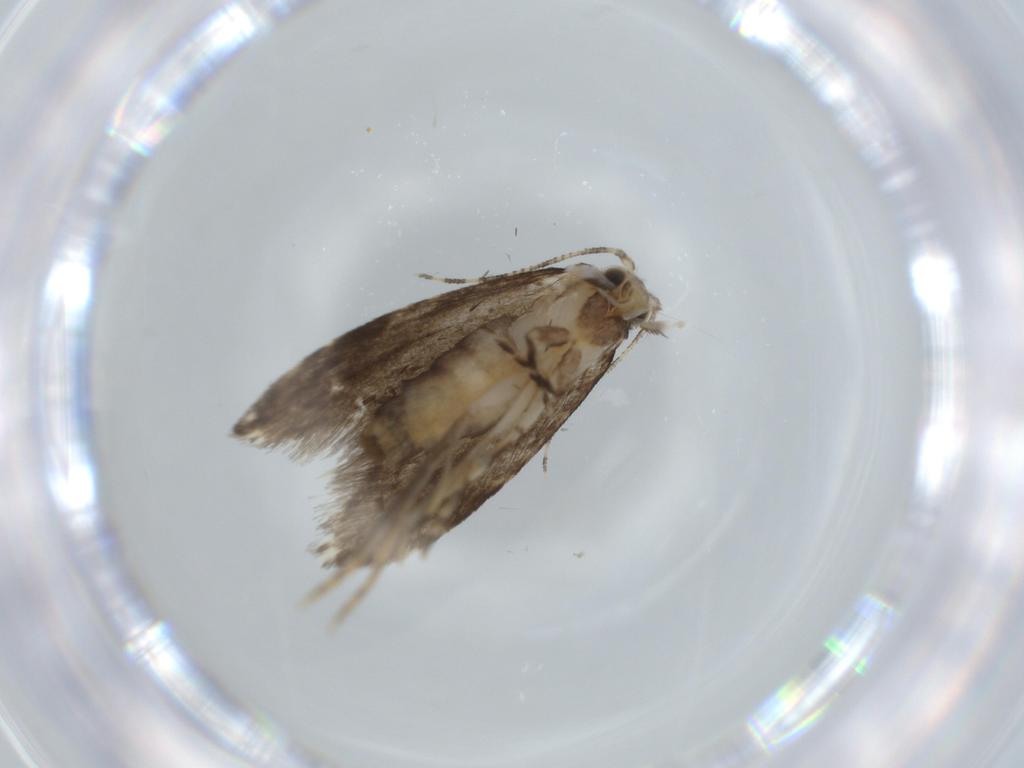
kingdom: Animalia
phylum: Arthropoda
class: Insecta
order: Lepidoptera
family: Tineidae
